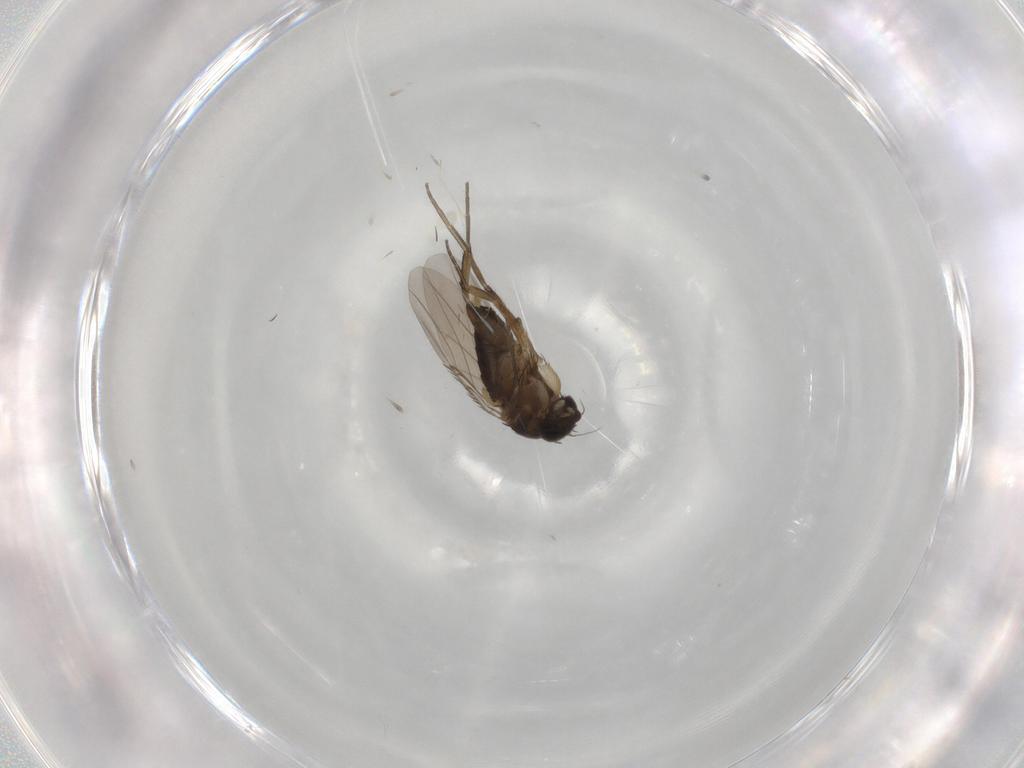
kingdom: Animalia
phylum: Arthropoda
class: Insecta
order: Diptera
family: Phoridae
